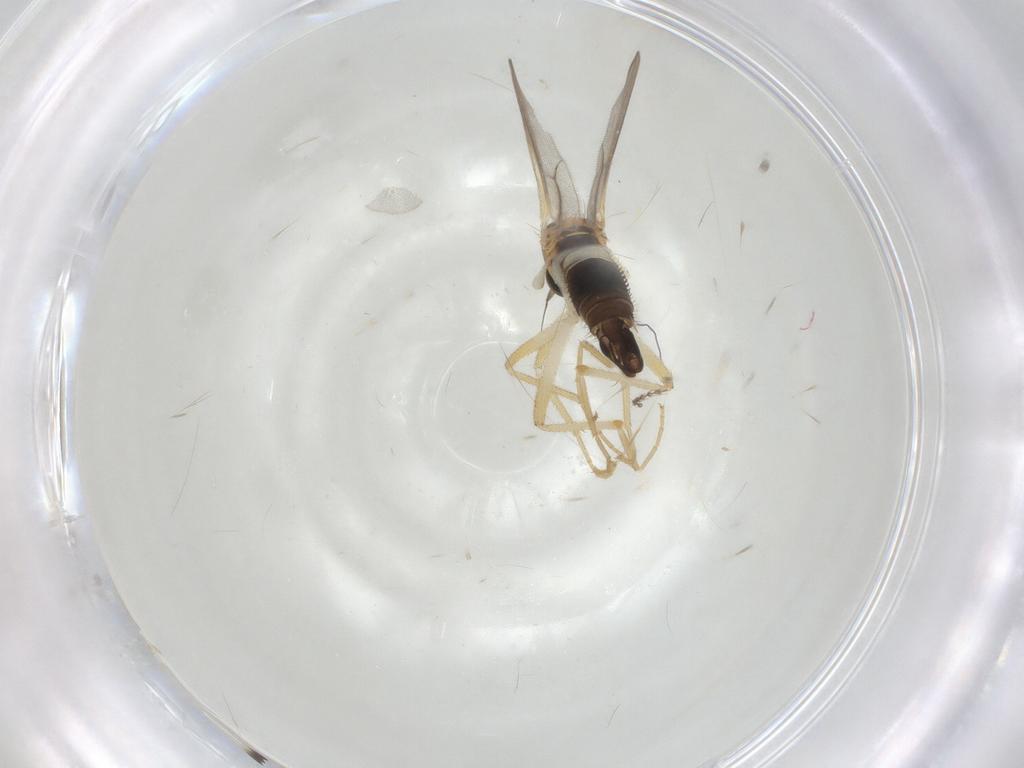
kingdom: Animalia
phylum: Arthropoda
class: Insecta
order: Diptera
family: Hybotidae
